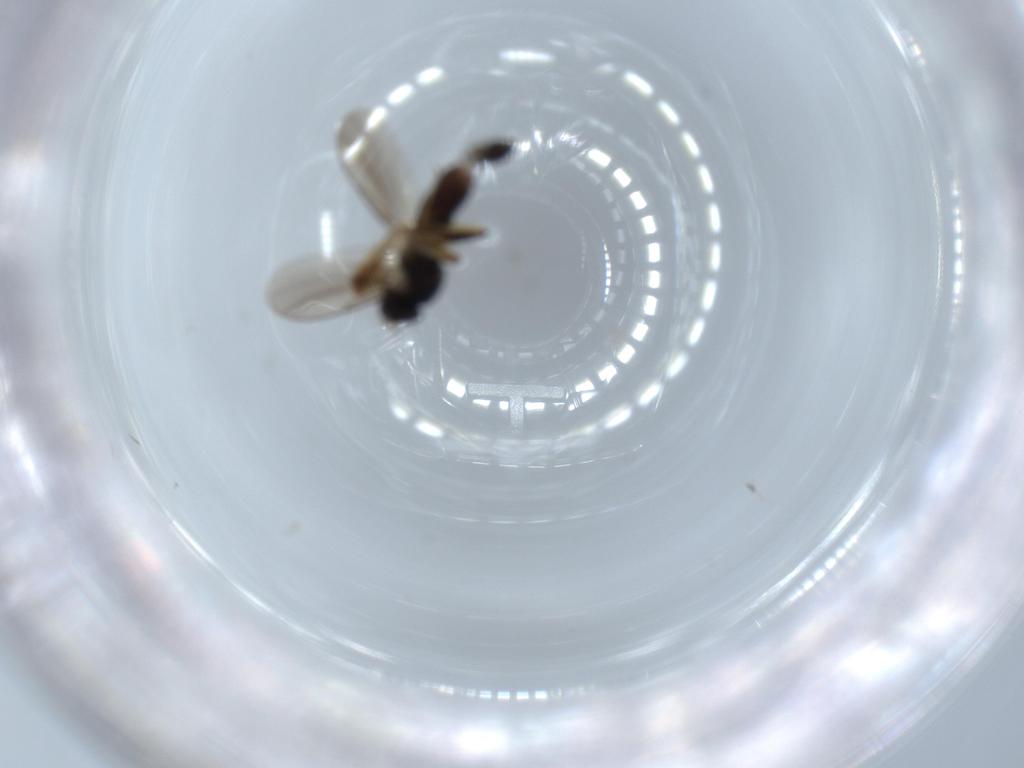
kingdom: Animalia
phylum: Arthropoda
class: Insecta
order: Diptera
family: Hybotidae
